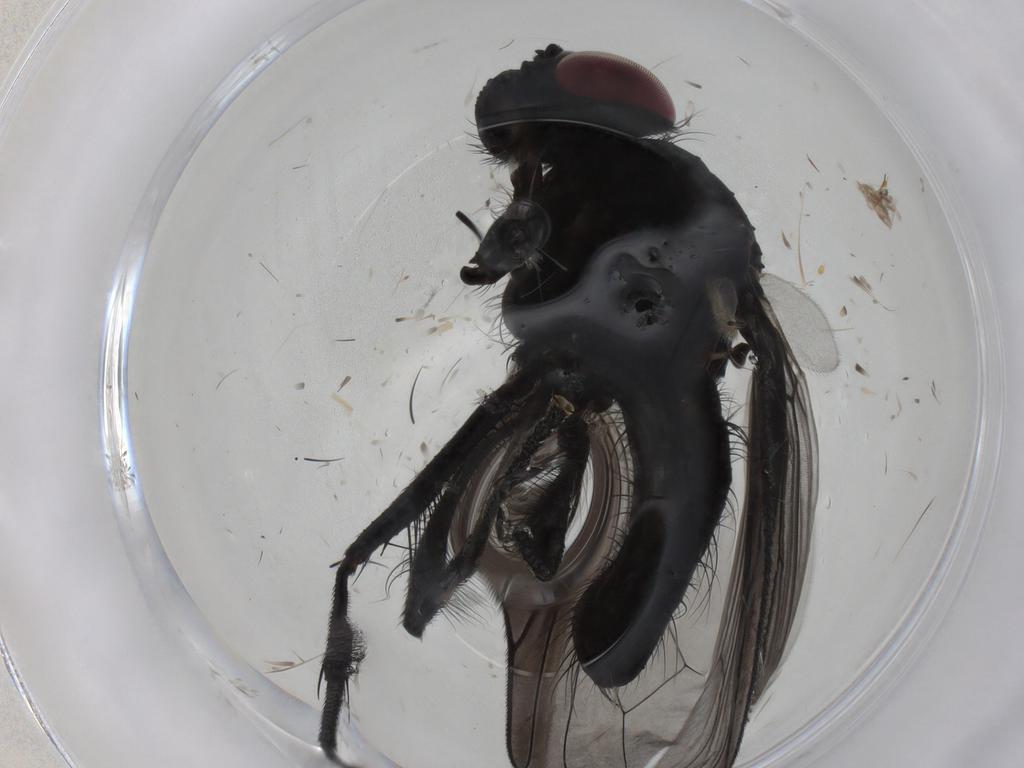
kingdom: Animalia
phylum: Arthropoda
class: Insecta
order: Diptera
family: Fannia
